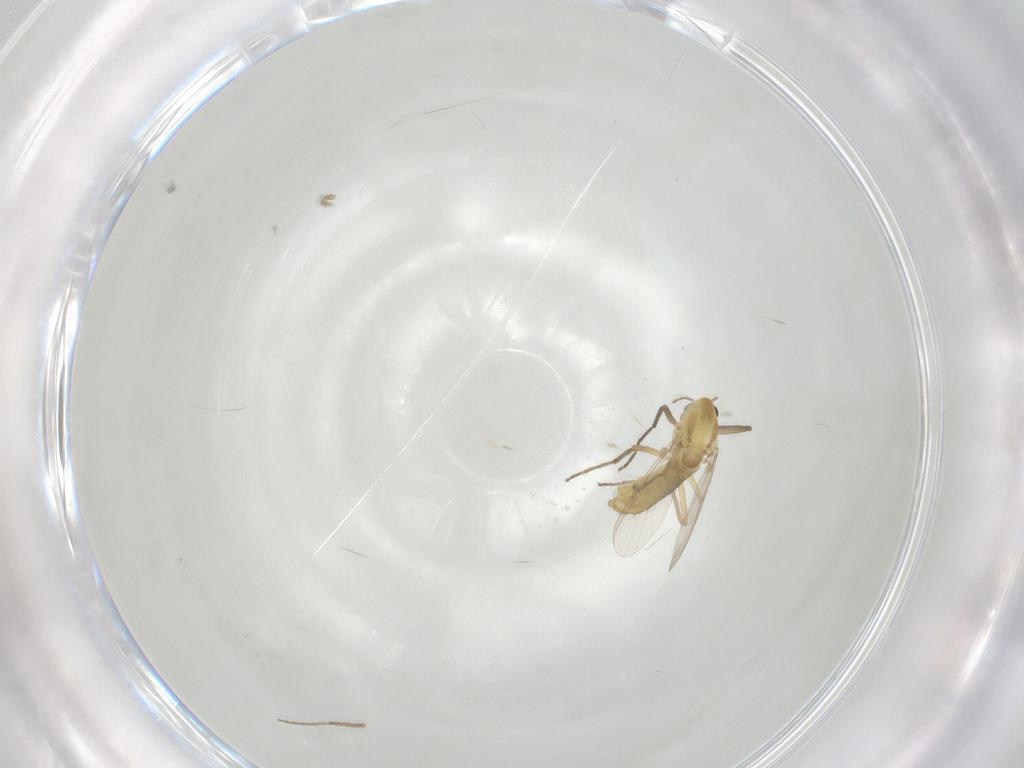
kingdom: Animalia
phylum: Arthropoda
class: Insecta
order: Diptera
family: Chironomidae
